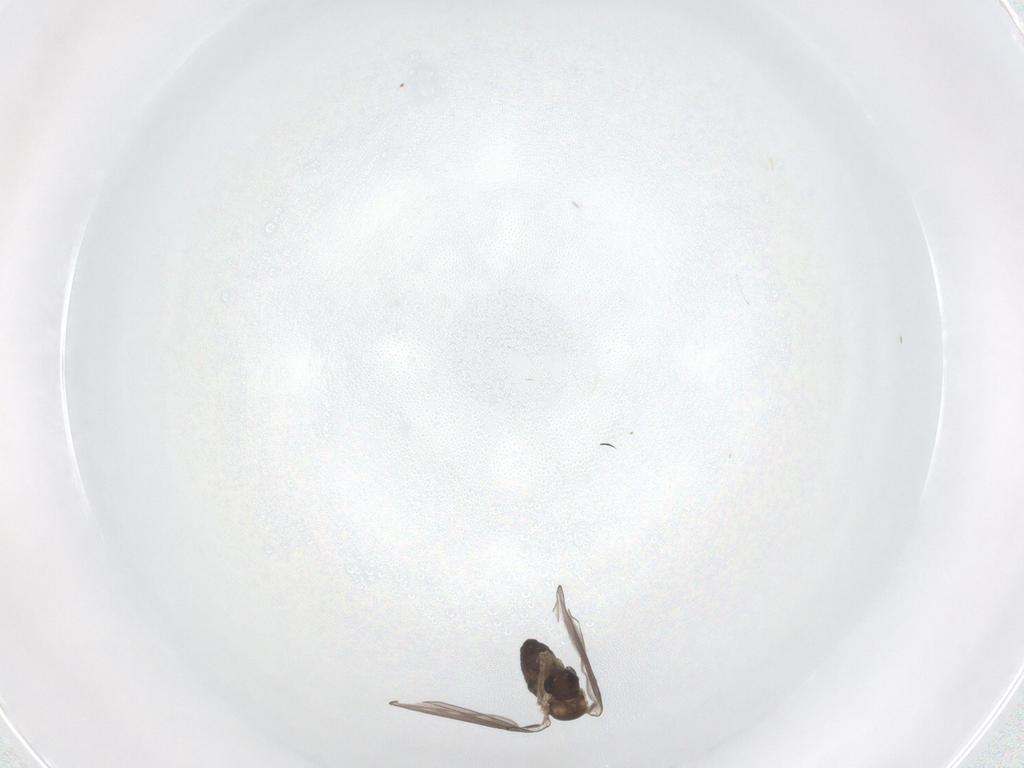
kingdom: Animalia
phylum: Arthropoda
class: Insecta
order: Diptera
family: Psychodidae
